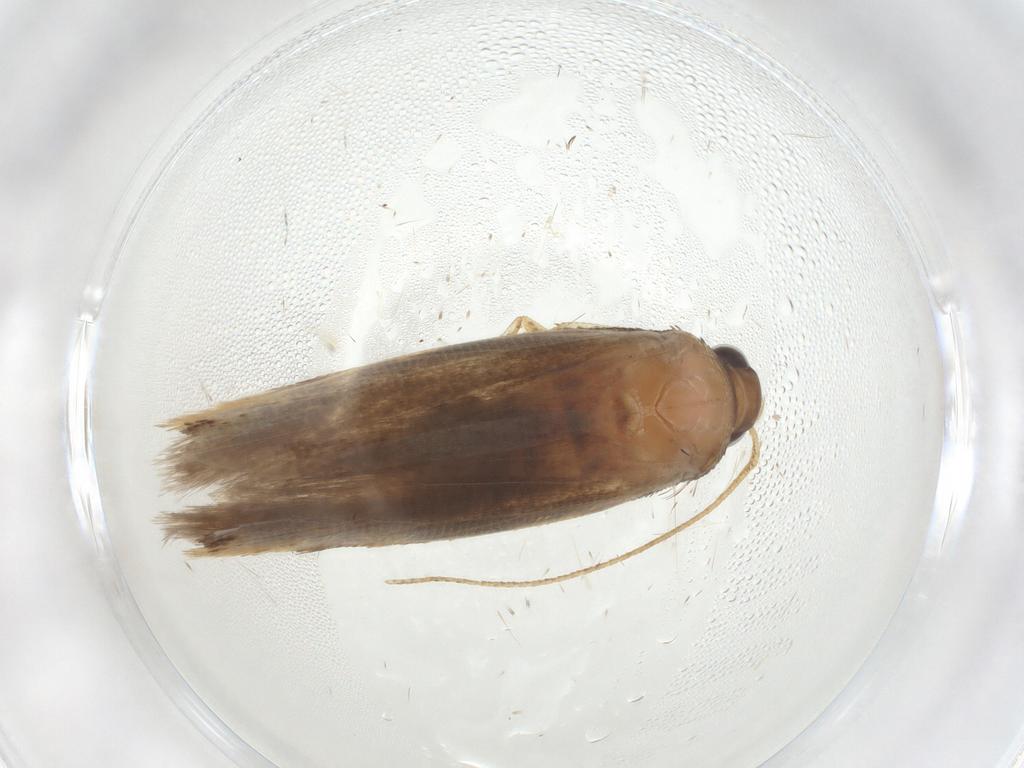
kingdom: Animalia
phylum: Arthropoda
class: Insecta
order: Lepidoptera
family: Gelechiidae
